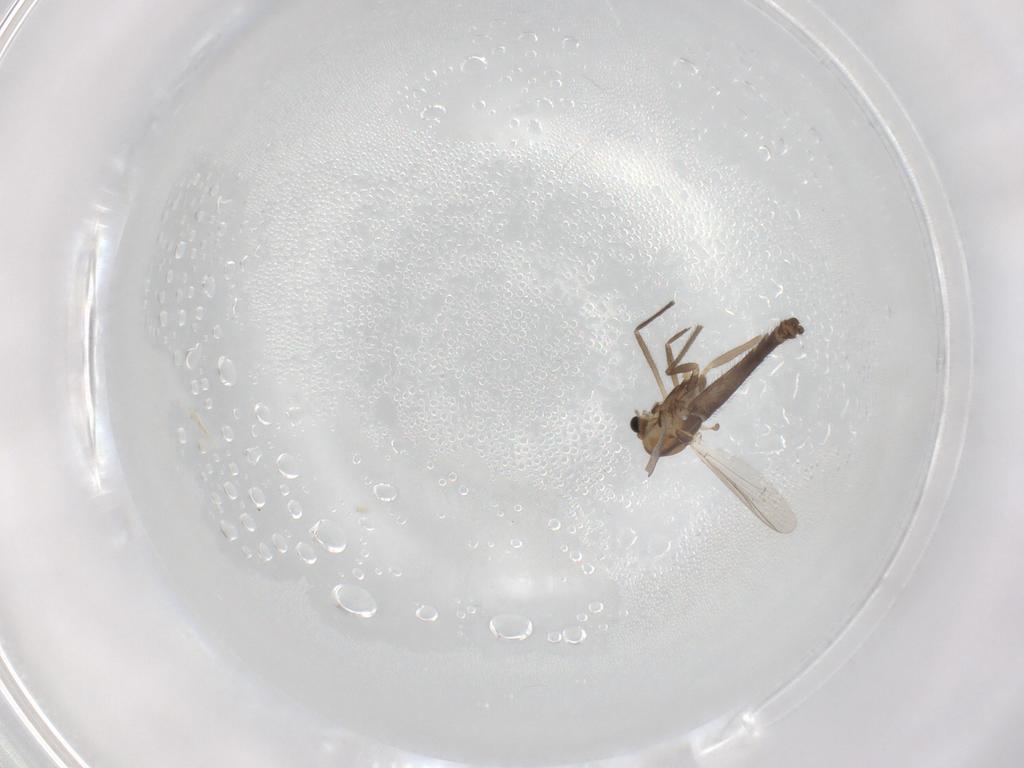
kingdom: Animalia
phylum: Arthropoda
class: Insecta
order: Diptera
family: Chironomidae
